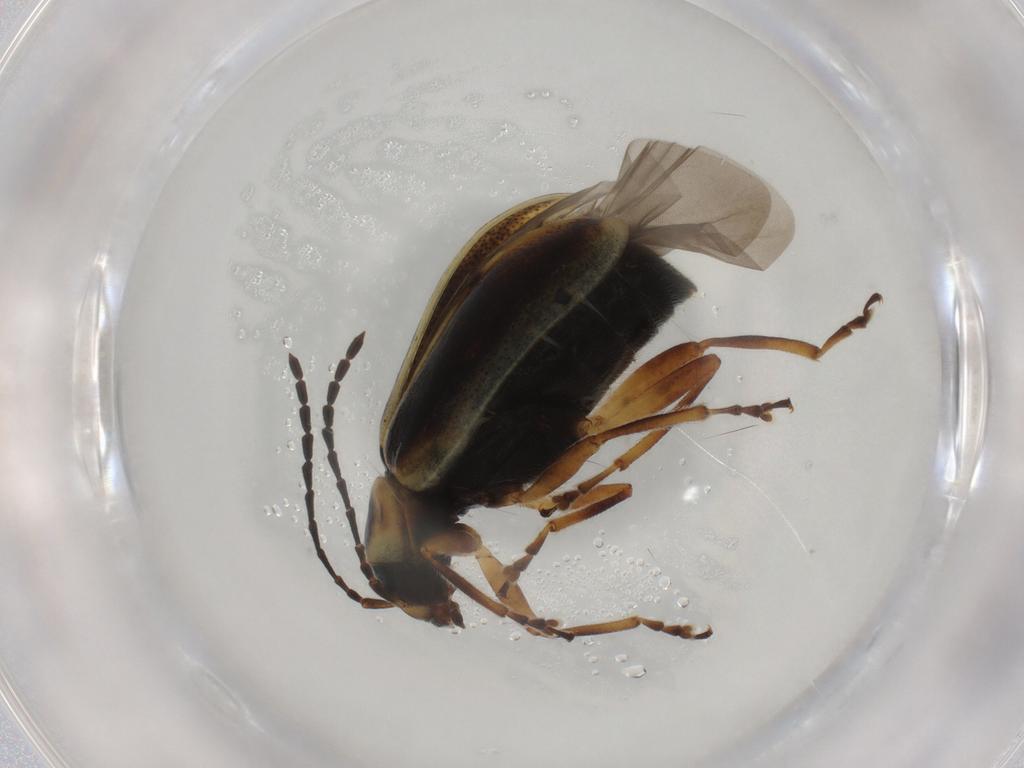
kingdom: Animalia
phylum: Arthropoda
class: Insecta
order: Coleoptera
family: Chrysomelidae
